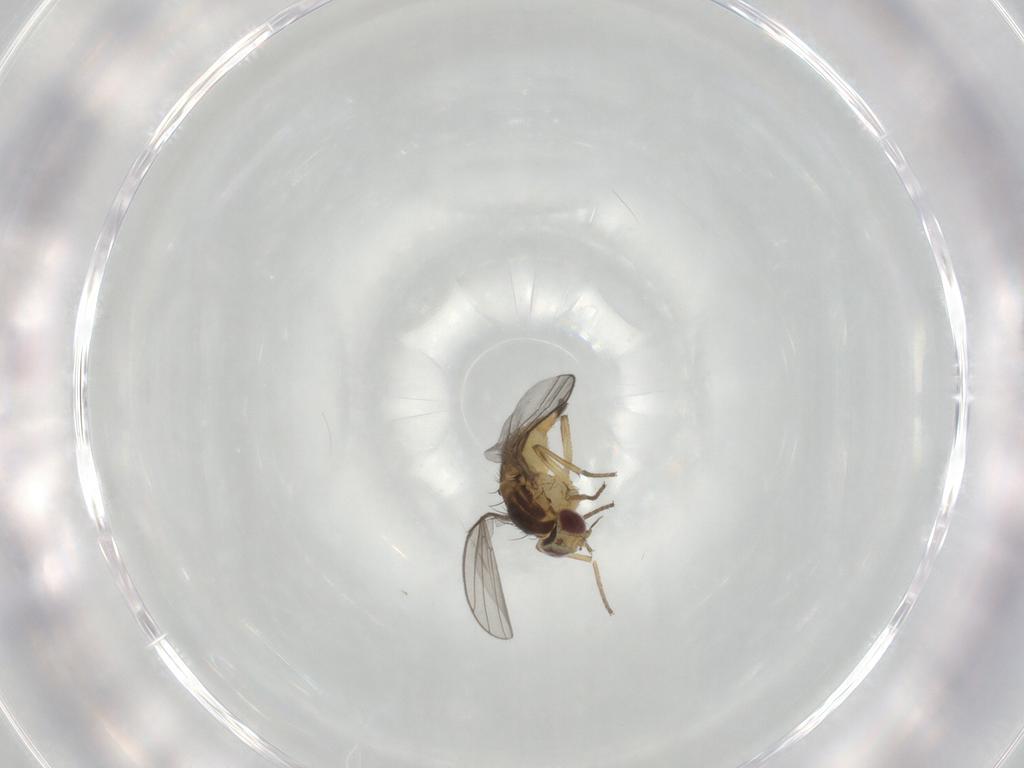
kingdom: Animalia
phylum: Arthropoda
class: Insecta
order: Diptera
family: Agromyzidae
